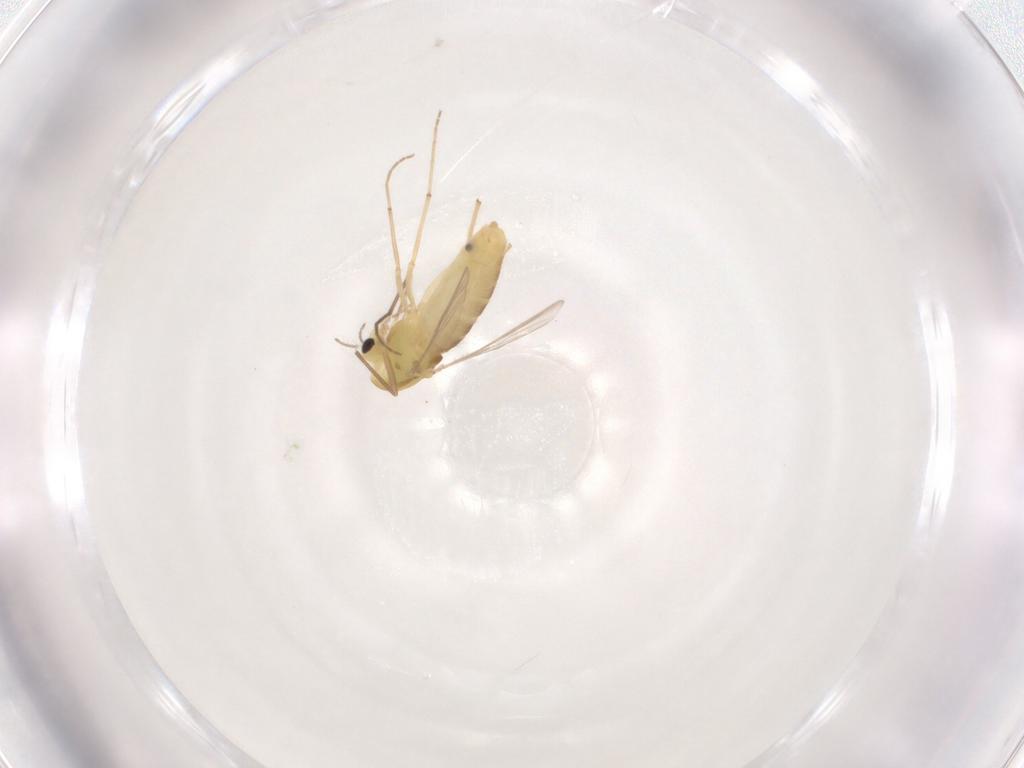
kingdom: Animalia
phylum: Arthropoda
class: Insecta
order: Diptera
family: Chironomidae
